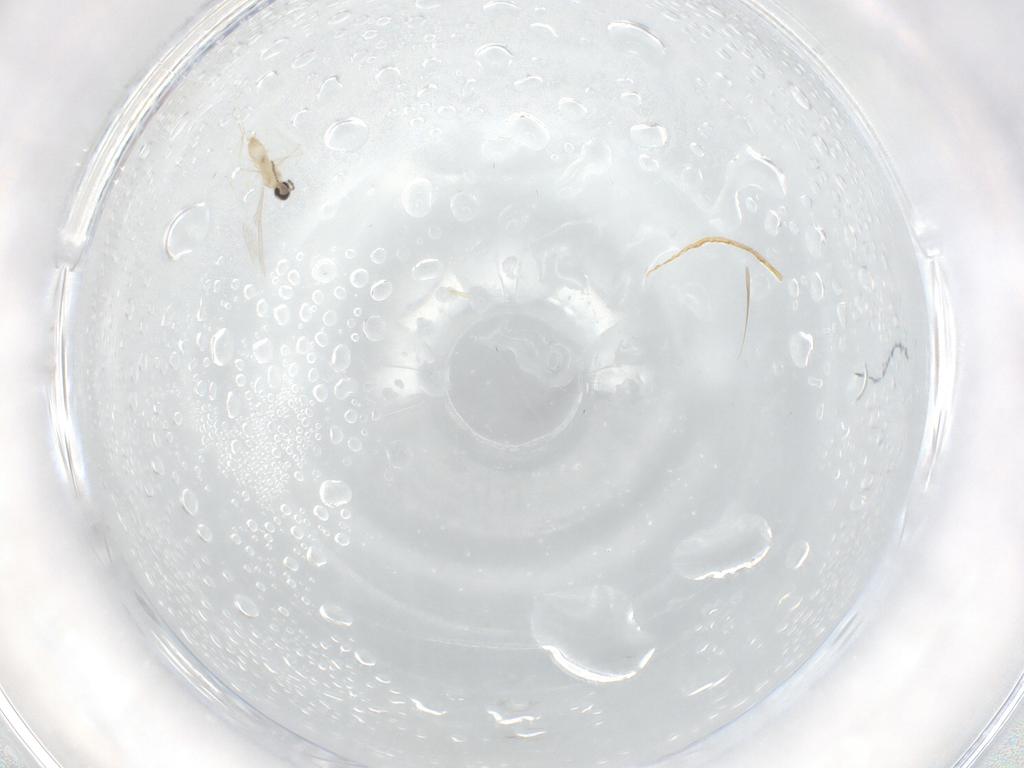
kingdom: Animalia
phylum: Arthropoda
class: Insecta
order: Diptera
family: Cecidomyiidae
